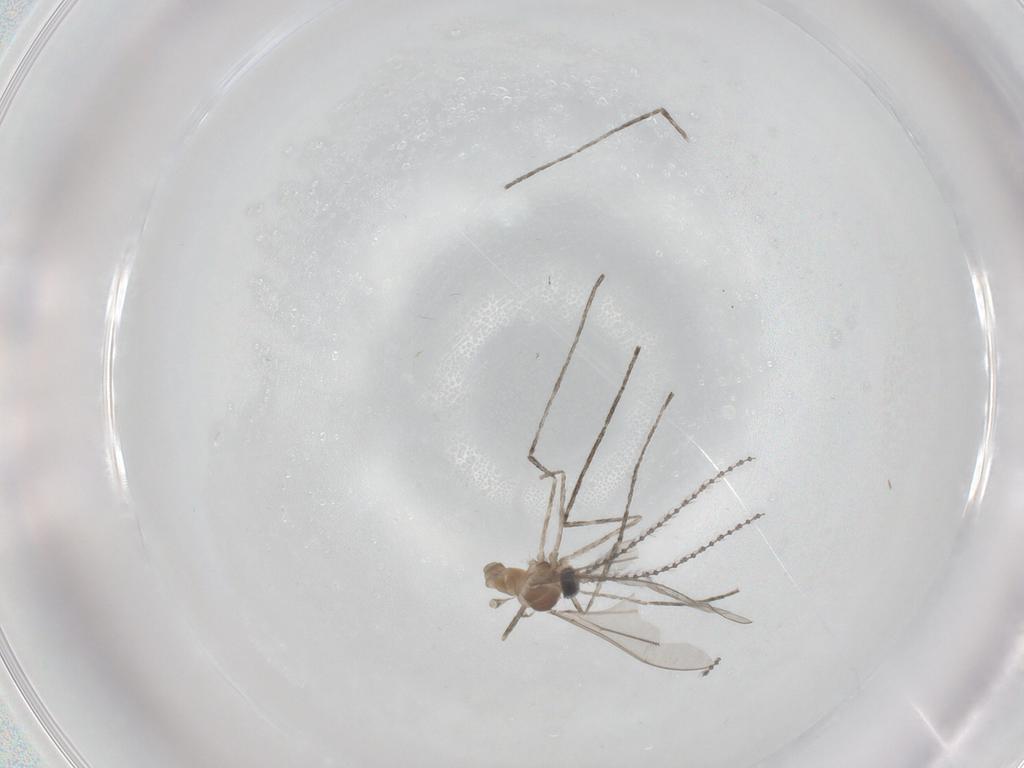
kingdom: Animalia
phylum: Arthropoda
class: Insecta
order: Diptera
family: Cecidomyiidae
